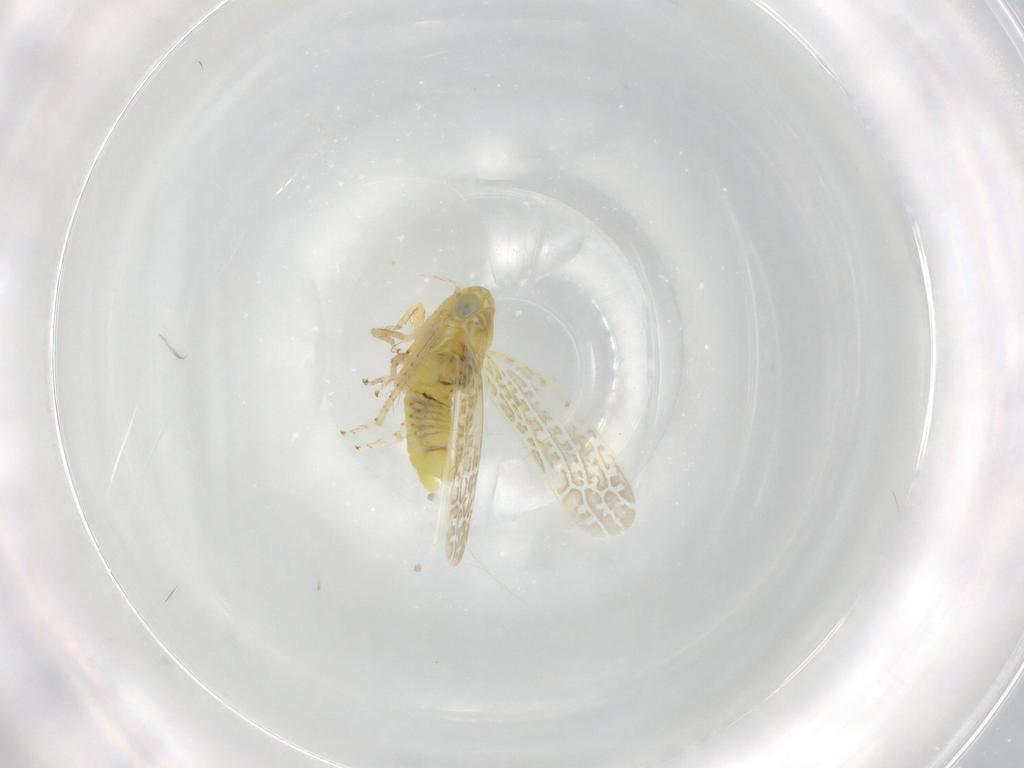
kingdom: Animalia
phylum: Arthropoda
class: Insecta
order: Hemiptera
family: Cicadellidae
